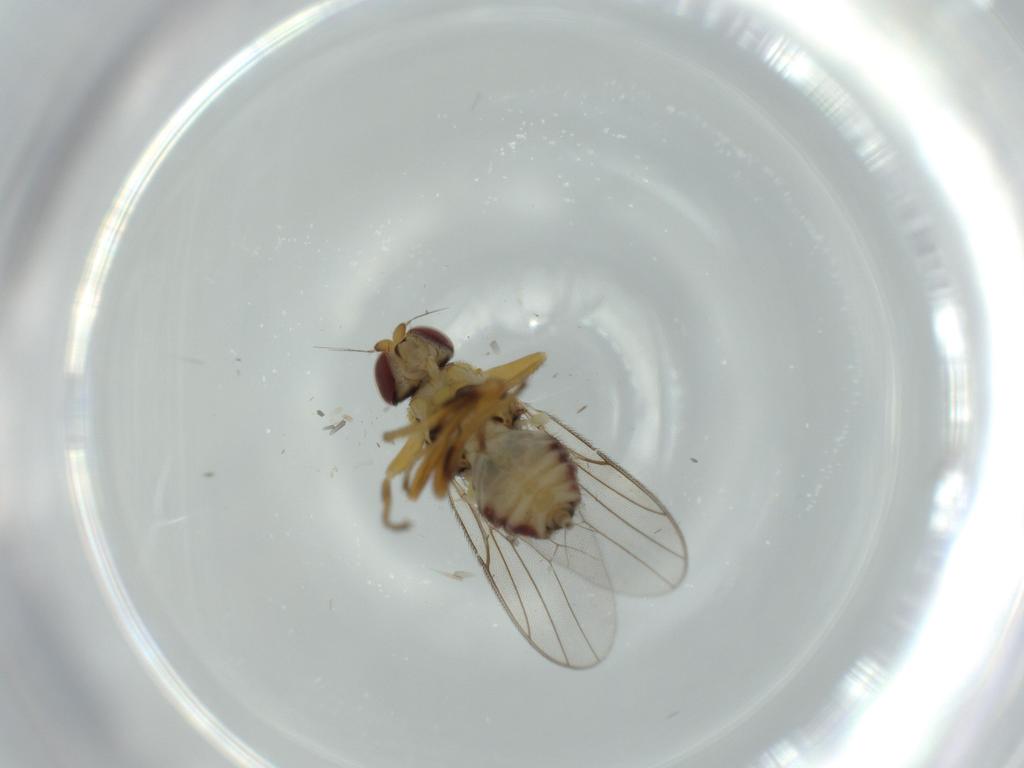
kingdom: Animalia
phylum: Arthropoda
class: Insecta
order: Diptera
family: Chloropidae
